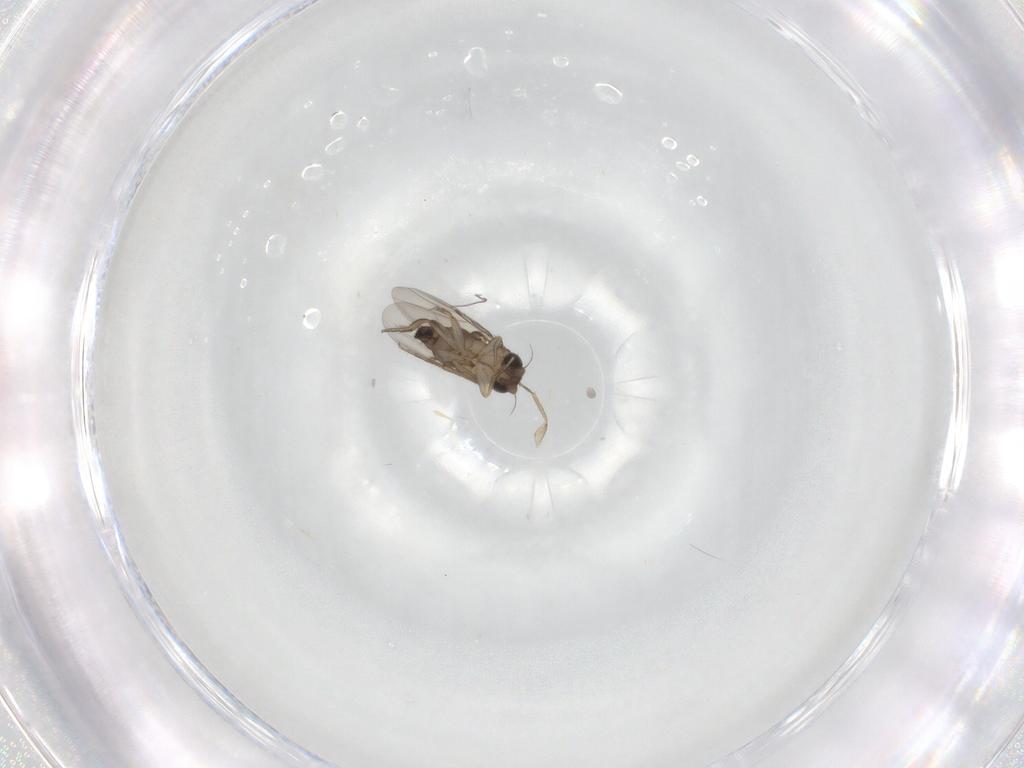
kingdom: Animalia
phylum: Arthropoda
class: Insecta
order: Diptera
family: Phoridae
